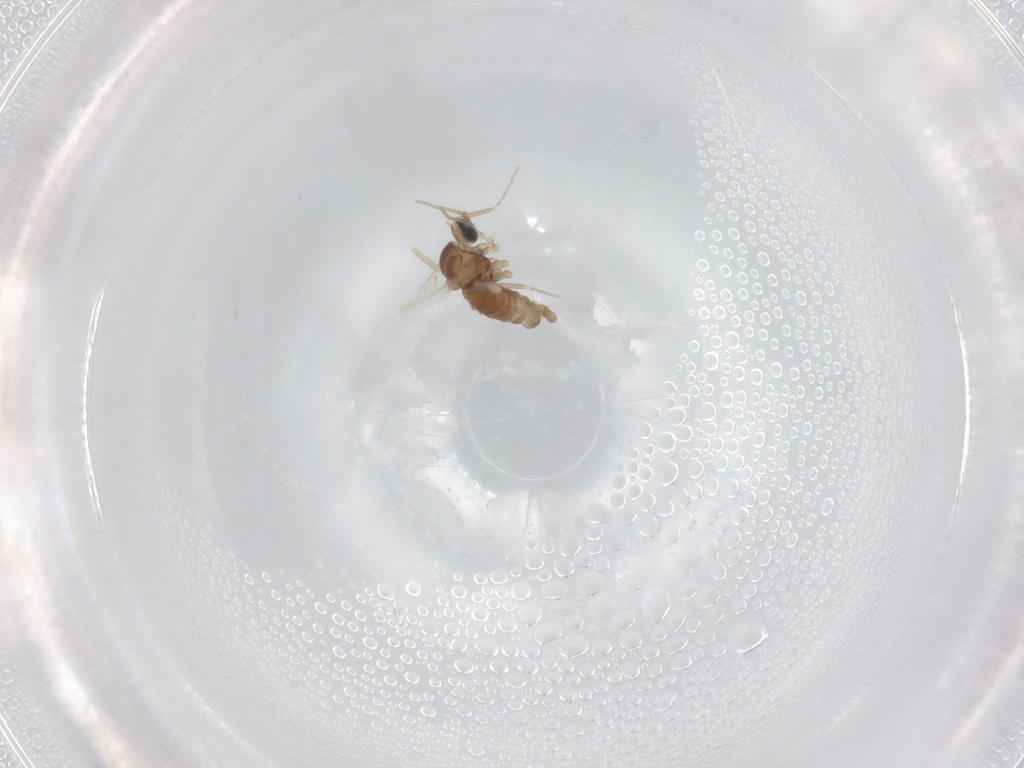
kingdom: Animalia
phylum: Arthropoda
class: Insecta
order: Diptera
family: Cecidomyiidae
